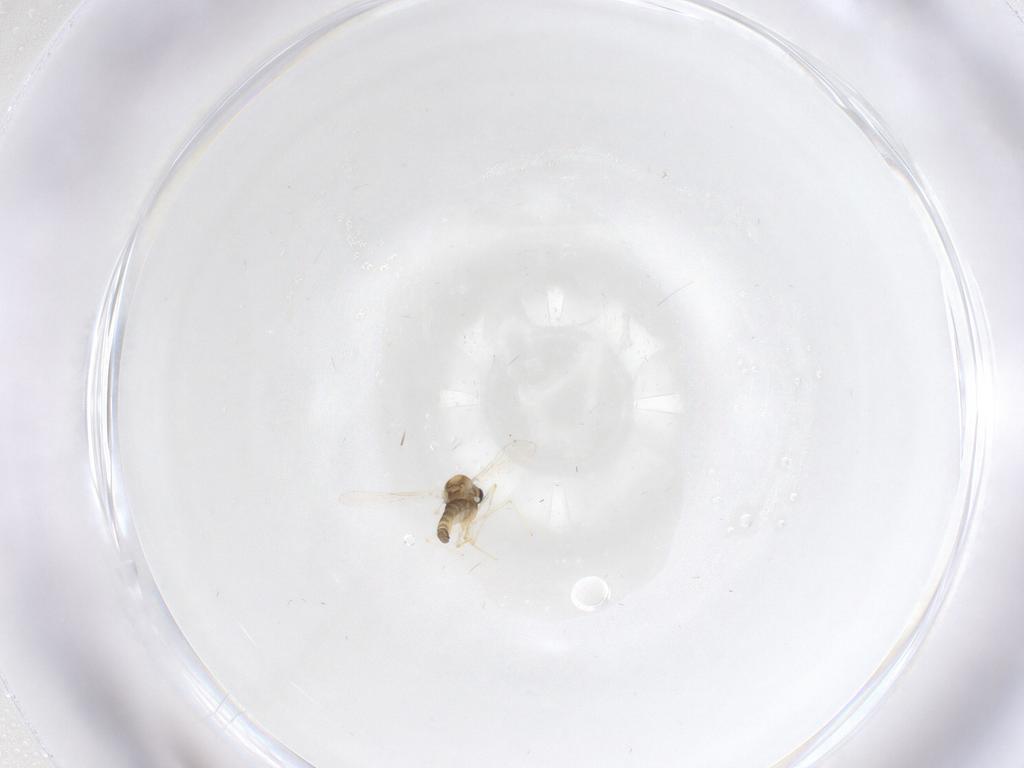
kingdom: Animalia
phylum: Arthropoda
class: Insecta
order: Diptera
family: Chironomidae
